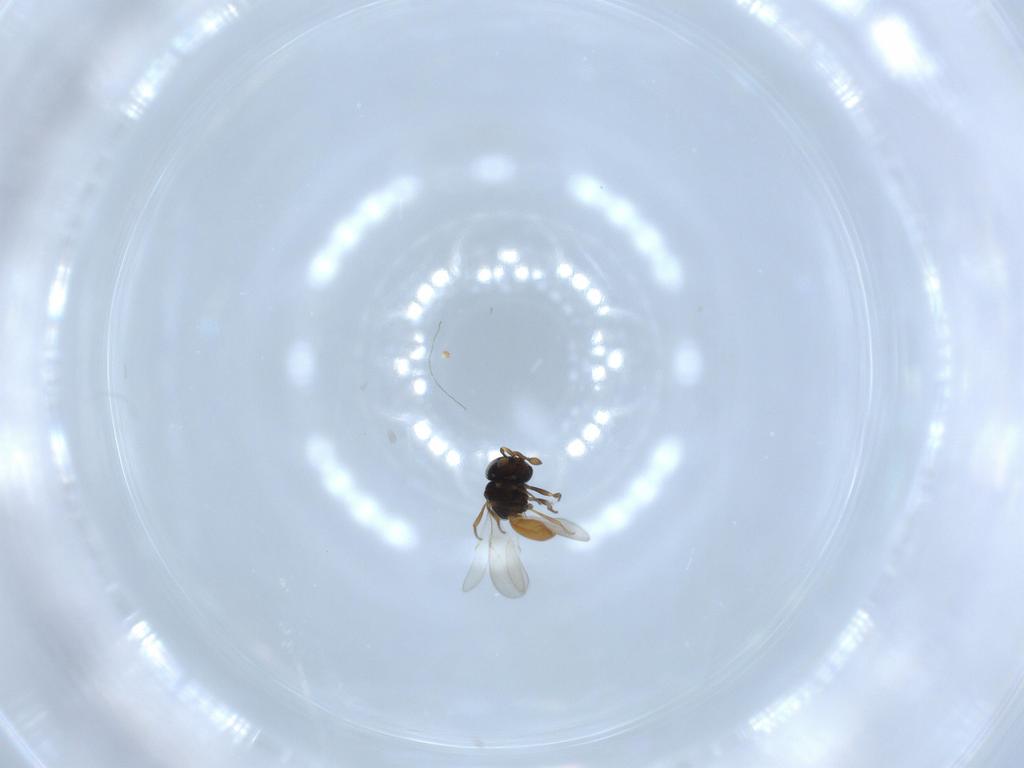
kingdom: Animalia
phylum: Arthropoda
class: Insecta
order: Hymenoptera
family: Scelionidae
